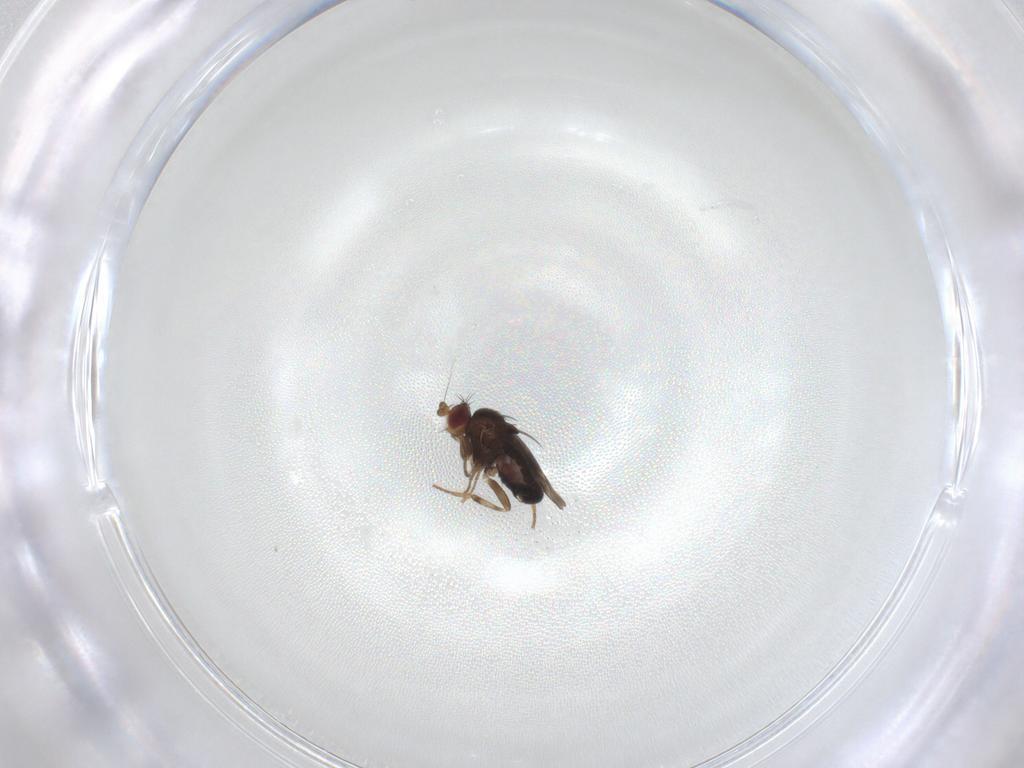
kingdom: Animalia
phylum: Arthropoda
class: Insecta
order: Diptera
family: Sphaeroceridae
